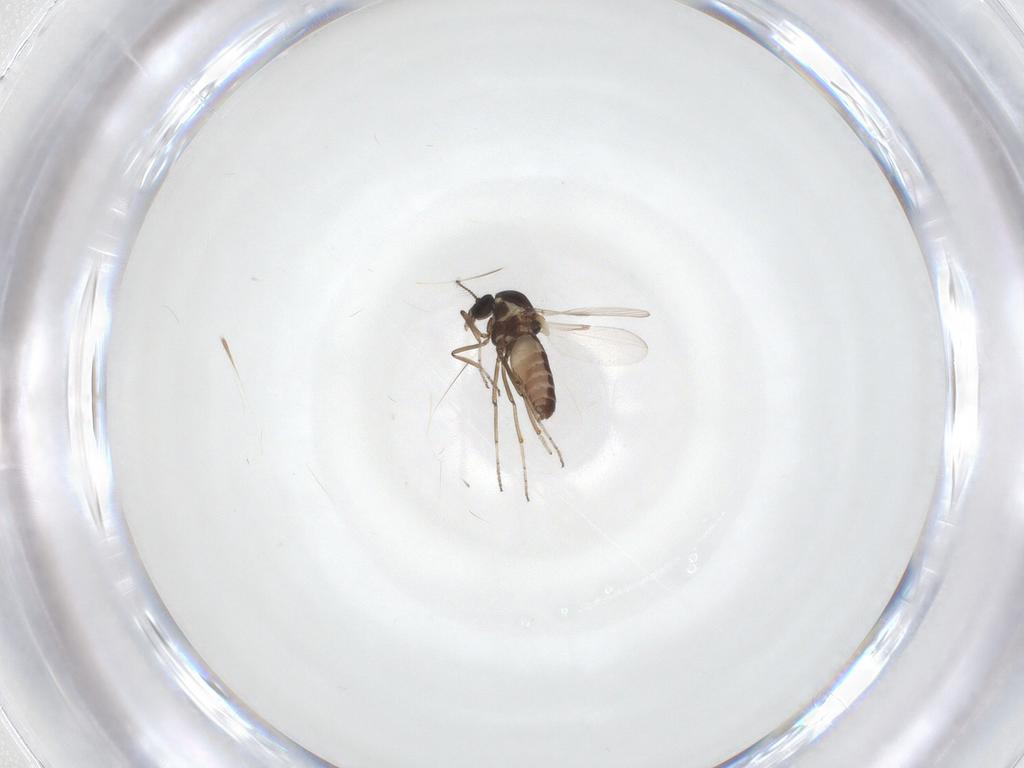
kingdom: Animalia
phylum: Arthropoda
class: Insecta
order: Diptera
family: Ceratopogonidae
